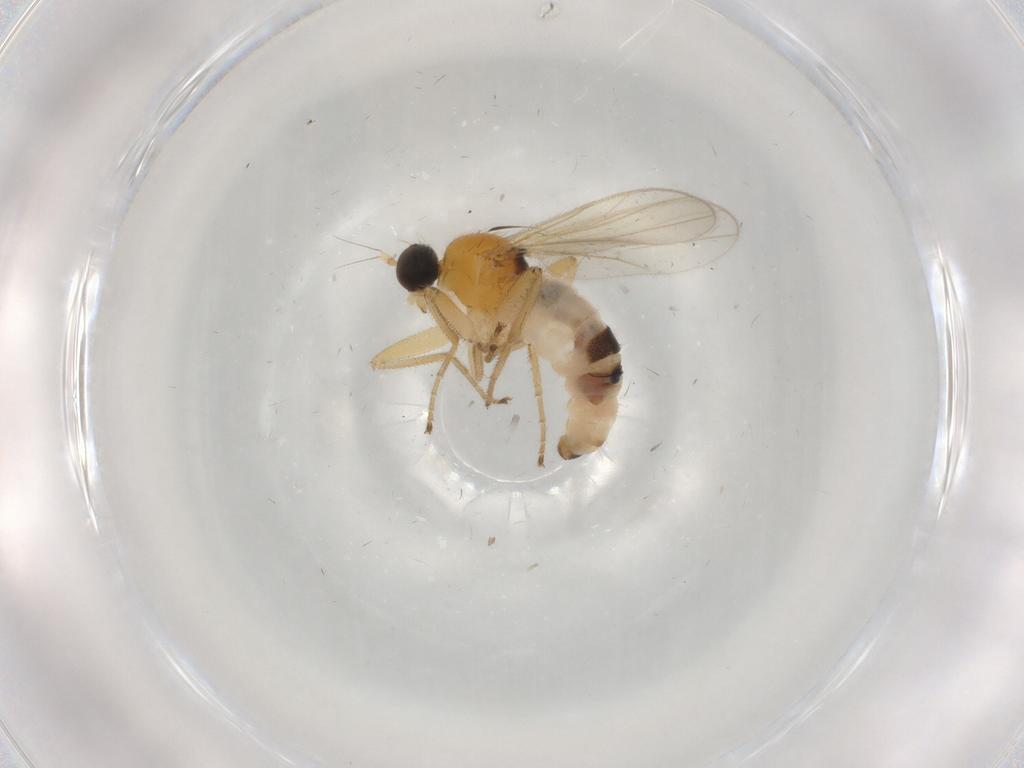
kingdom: Animalia
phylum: Arthropoda
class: Insecta
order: Diptera
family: Hybotidae
